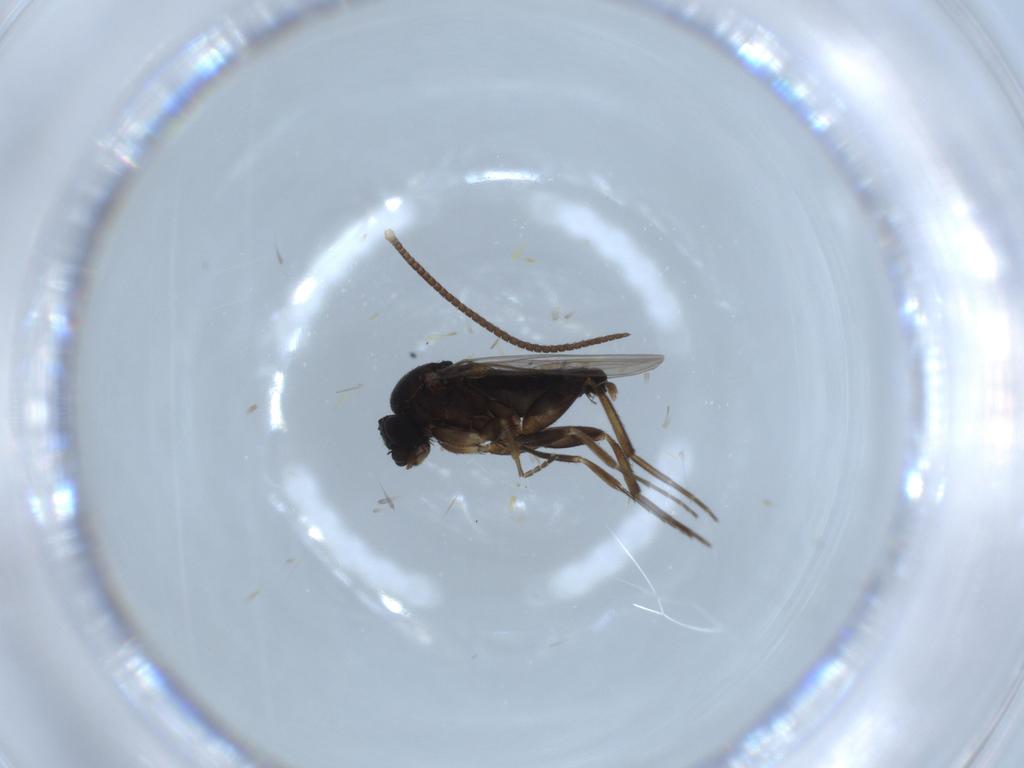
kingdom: Animalia
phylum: Arthropoda
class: Insecta
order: Diptera
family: Phoridae
